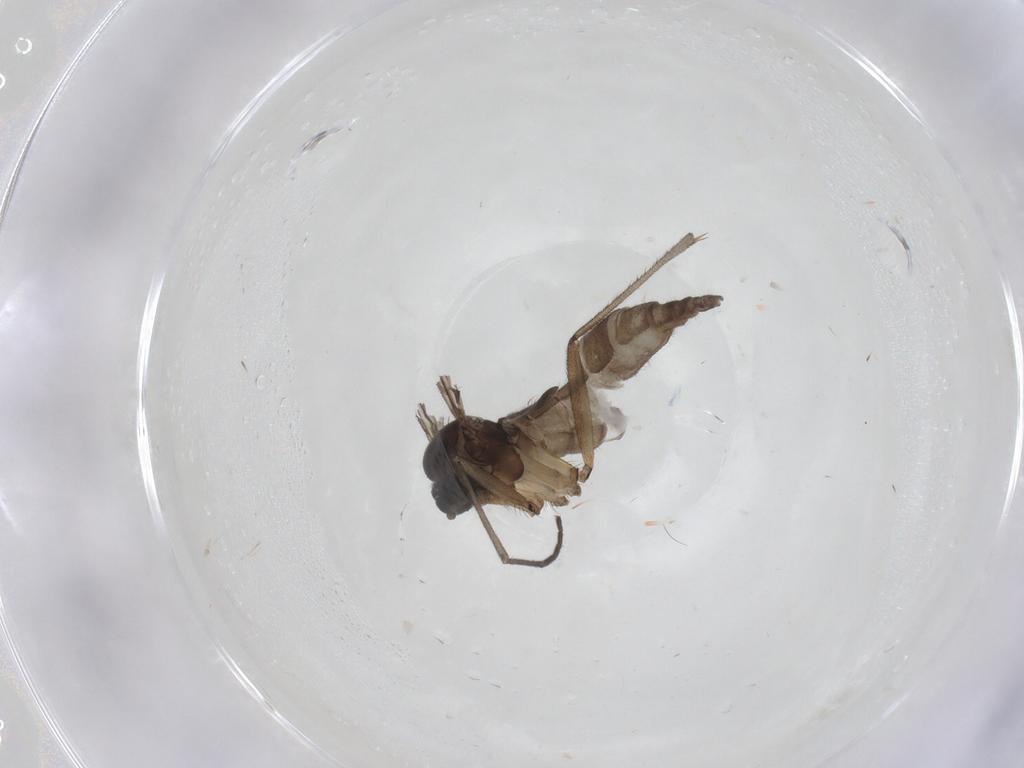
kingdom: Animalia
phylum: Arthropoda
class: Insecta
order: Diptera
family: Sciaridae
